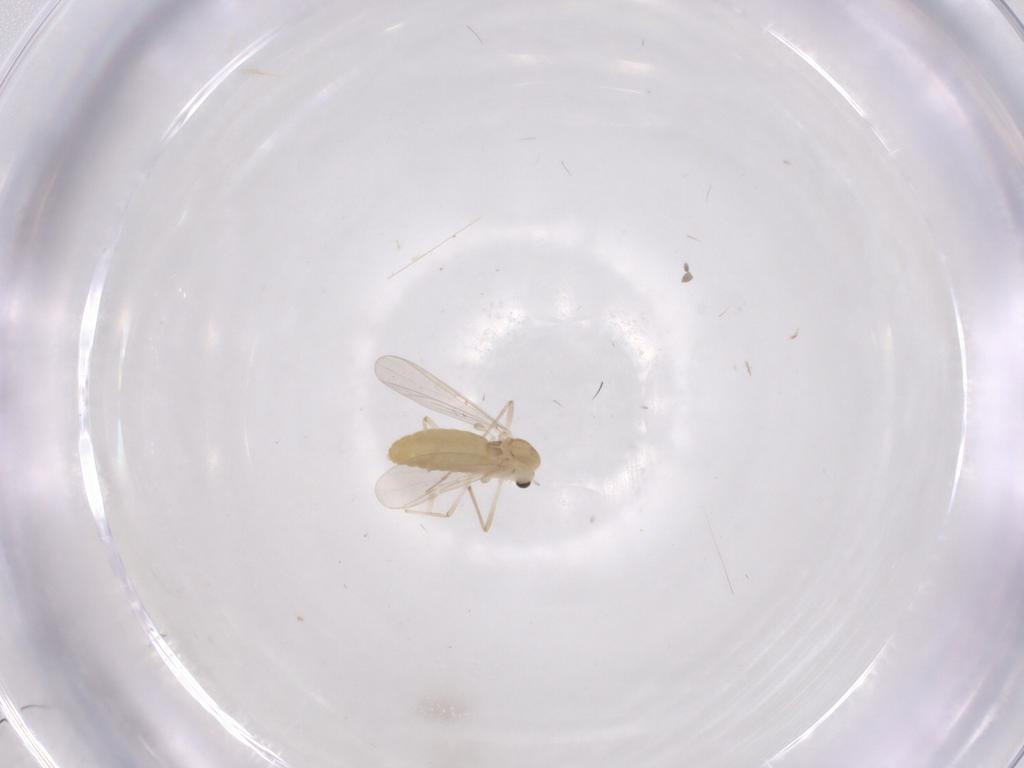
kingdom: Animalia
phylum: Arthropoda
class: Insecta
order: Diptera
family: Chironomidae
